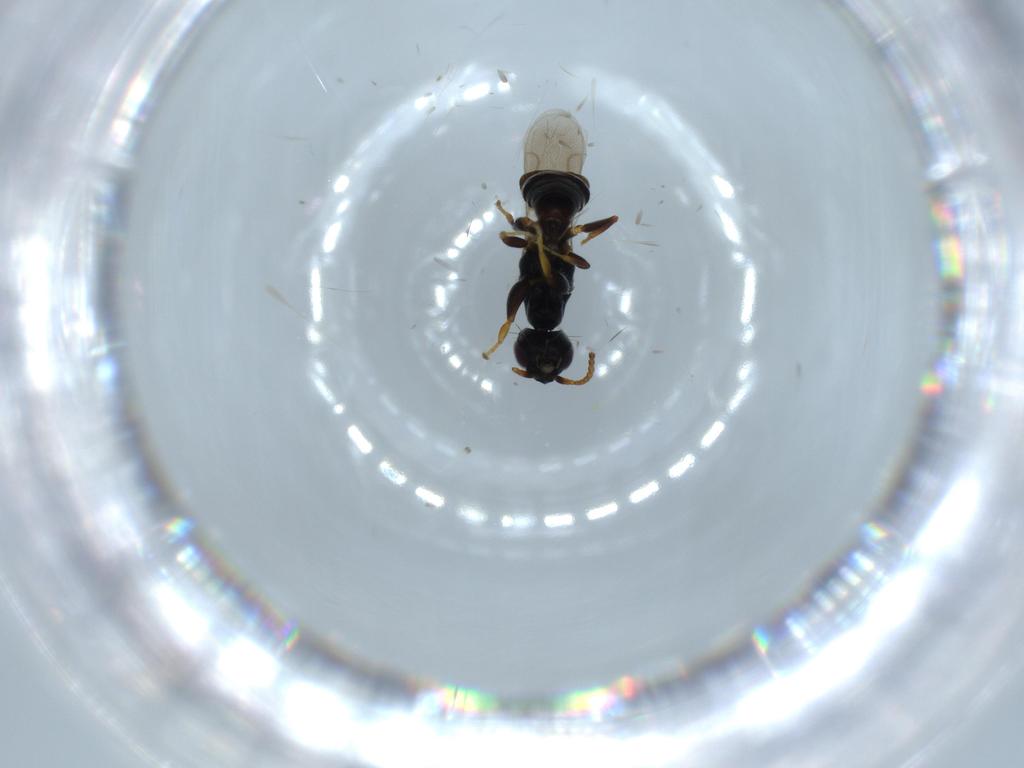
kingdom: Animalia
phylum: Arthropoda
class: Insecta
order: Hymenoptera
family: Bethylidae
